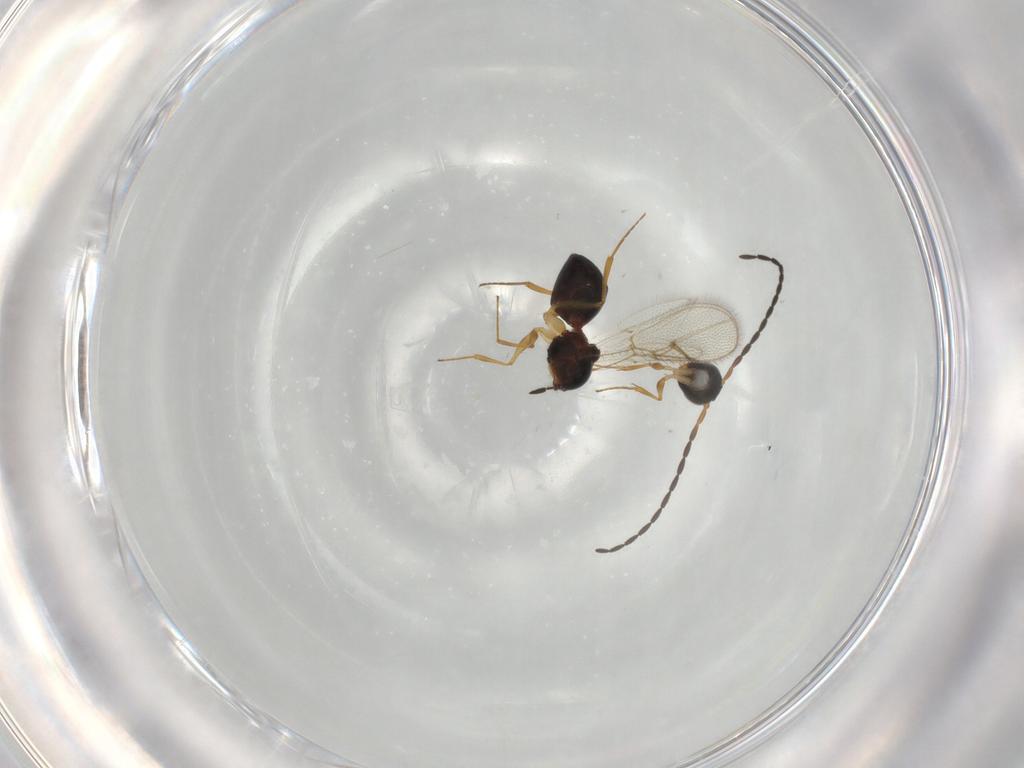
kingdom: Animalia
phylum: Arthropoda
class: Insecta
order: Hymenoptera
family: Figitidae
